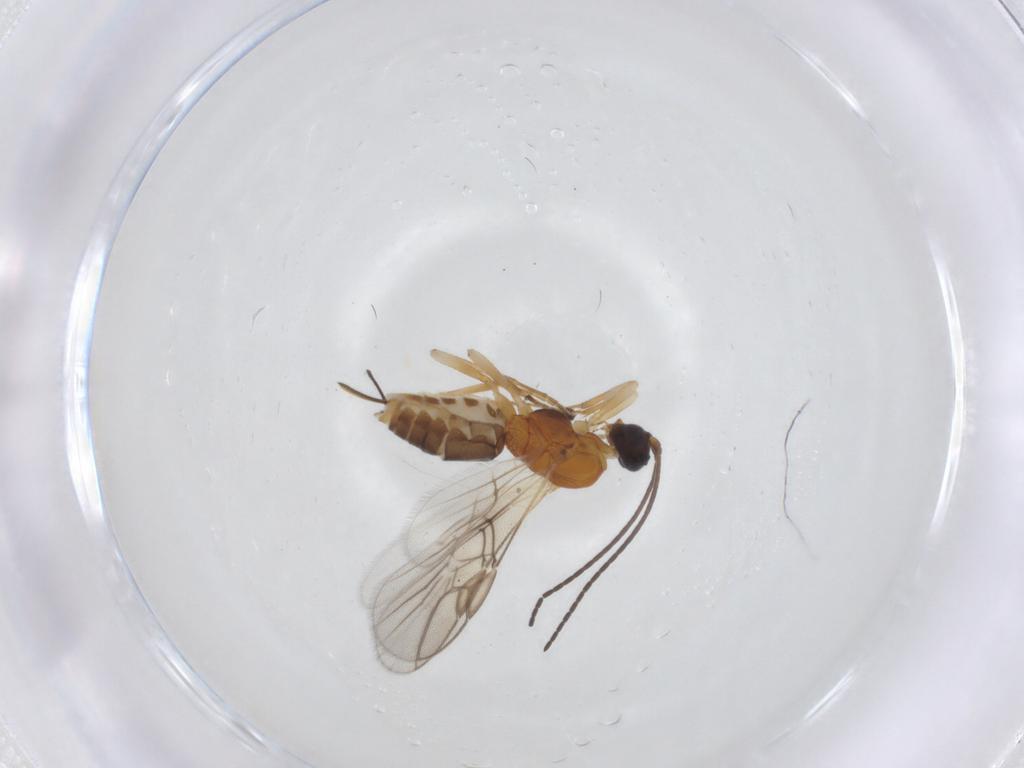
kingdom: Animalia
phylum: Arthropoda
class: Insecta
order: Hymenoptera
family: Braconidae
